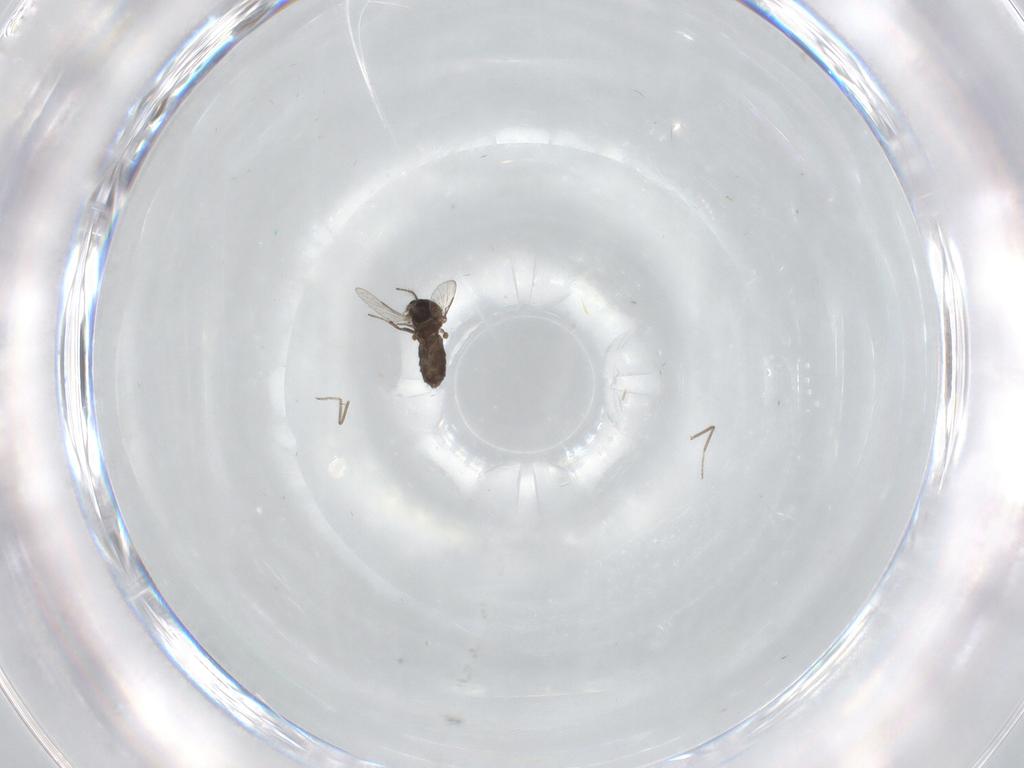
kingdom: Animalia
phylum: Arthropoda
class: Insecta
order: Diptera
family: Ceratopogonidae
